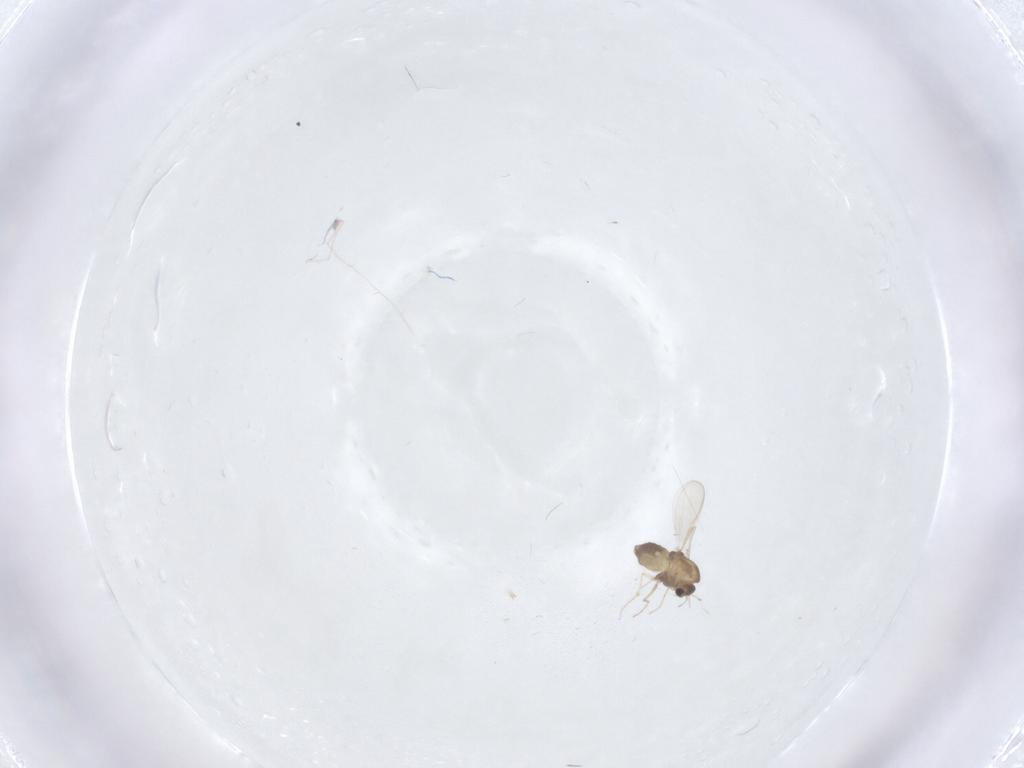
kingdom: Animalia
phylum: Arthropoda
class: Insecta
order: Diptera
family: Chironomidae
